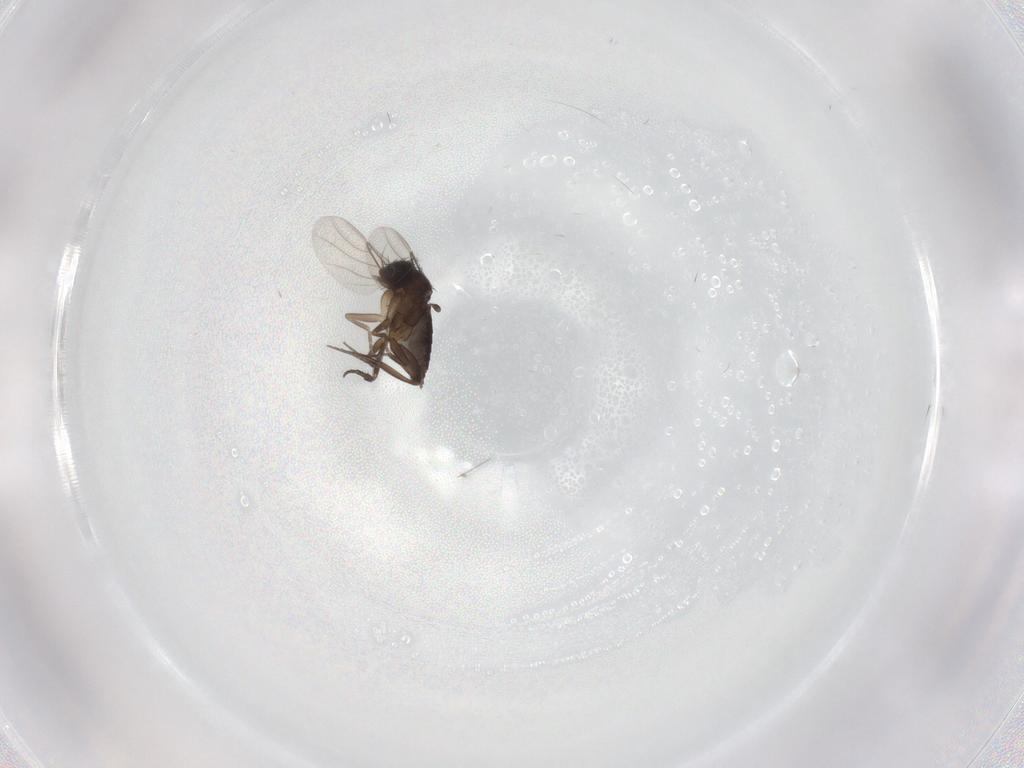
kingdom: Animalia
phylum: Arthropoda
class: Insecta
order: Diptera
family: Phoridae
